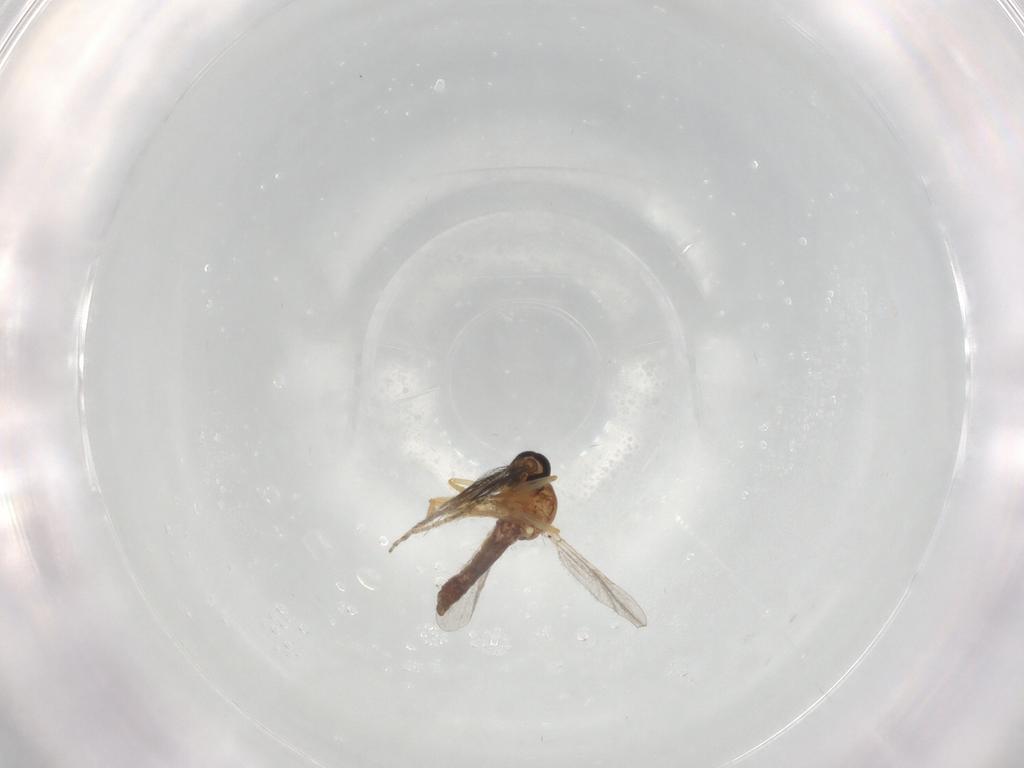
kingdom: Animalia
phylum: Arthropoda
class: Insecta
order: Diptera
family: Ceratopogonidae
